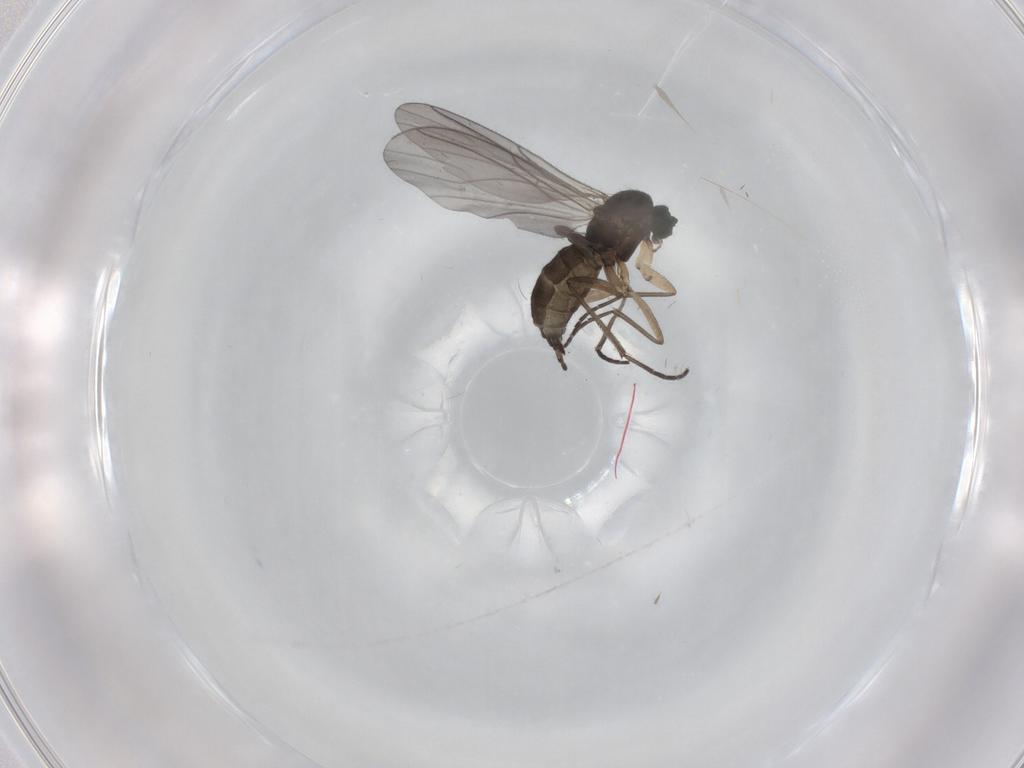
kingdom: Animalia
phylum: Arthropoda
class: Insecta
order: Diptera
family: Sciaridae
